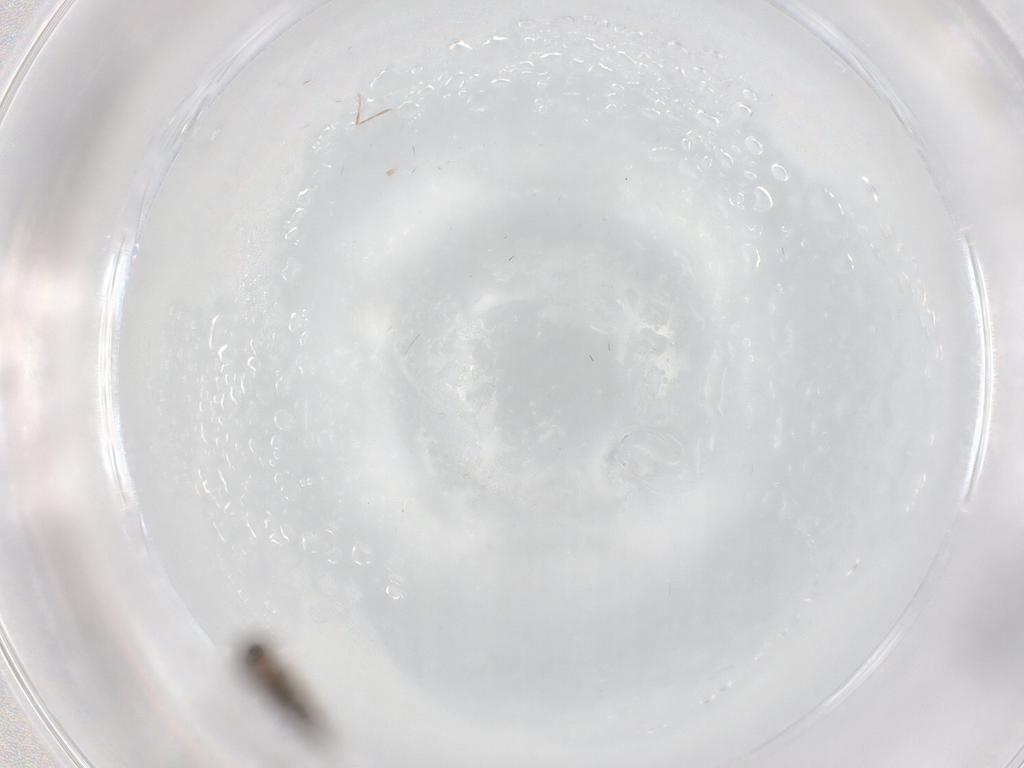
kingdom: Animalia
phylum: Arthropoda
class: Insecta
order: Diptera
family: Sciaridae
